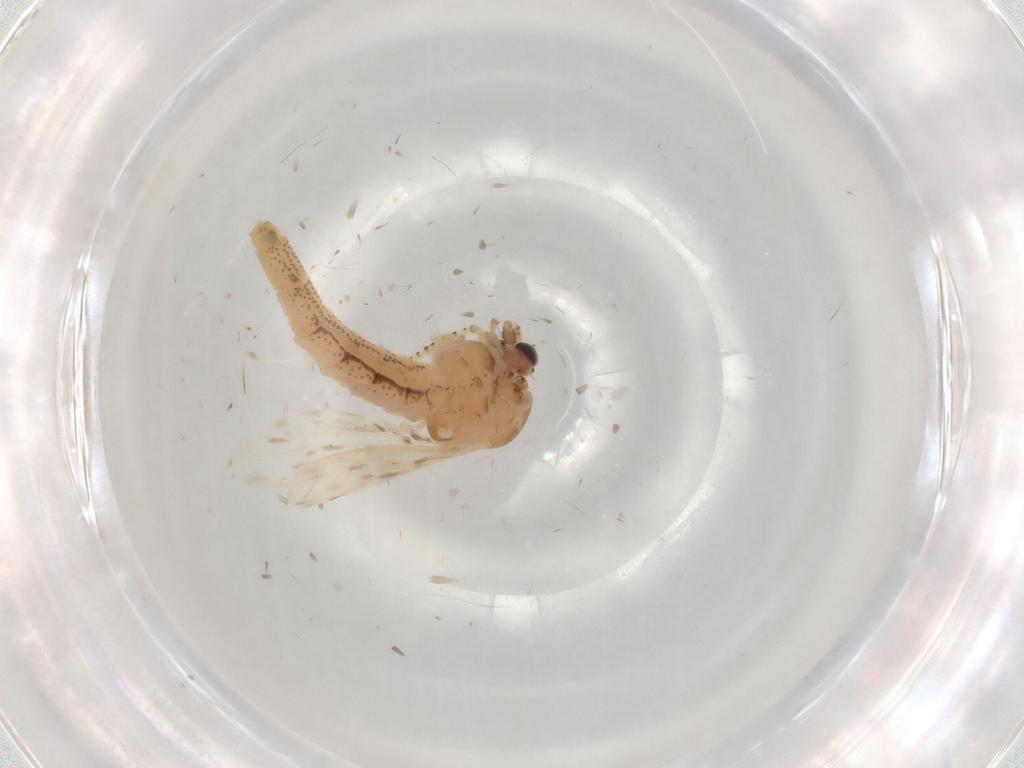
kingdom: Animalia
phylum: Arthropoda
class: Insecta
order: Diptera
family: Chaoboridae
